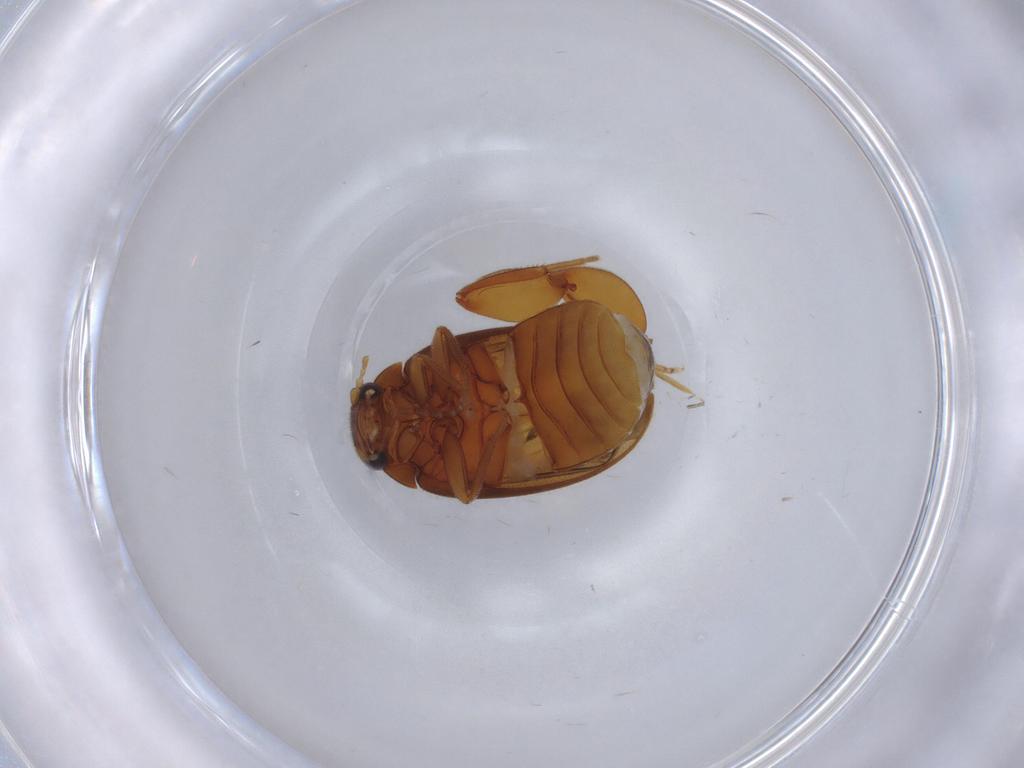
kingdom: Animalia
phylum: Arthropoda
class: Insecta
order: Coleoptera
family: Scirtidae
